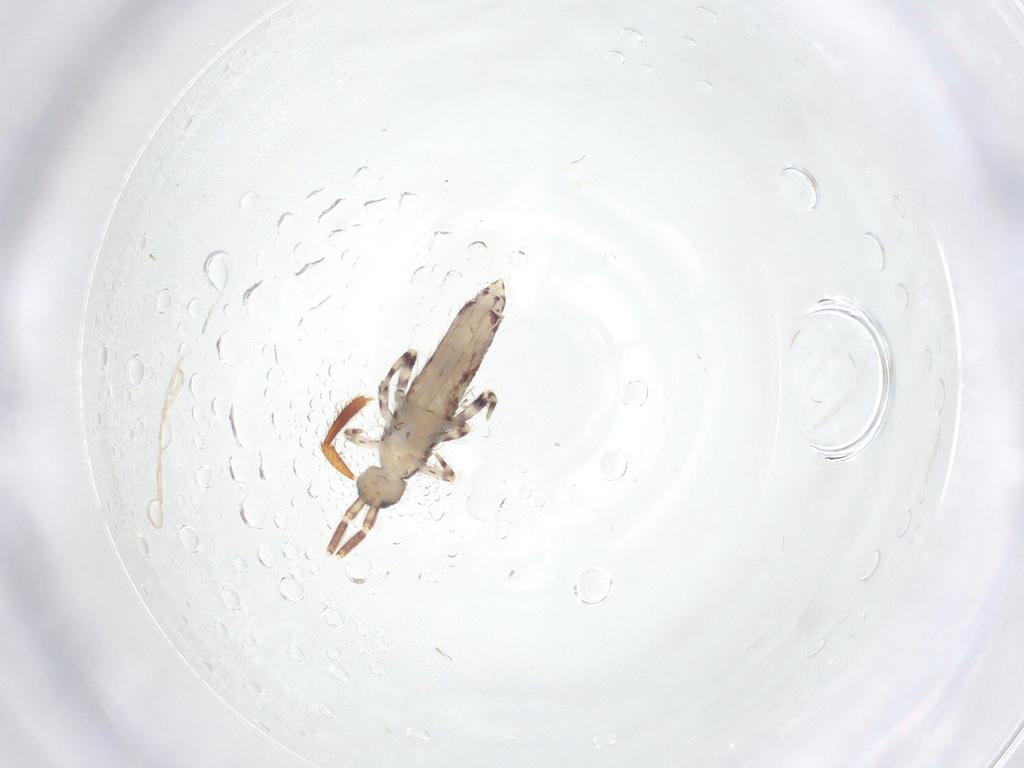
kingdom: Animalia
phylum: Arthropoda
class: Collembola
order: Entomobryomorpha
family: Entomobryidae
